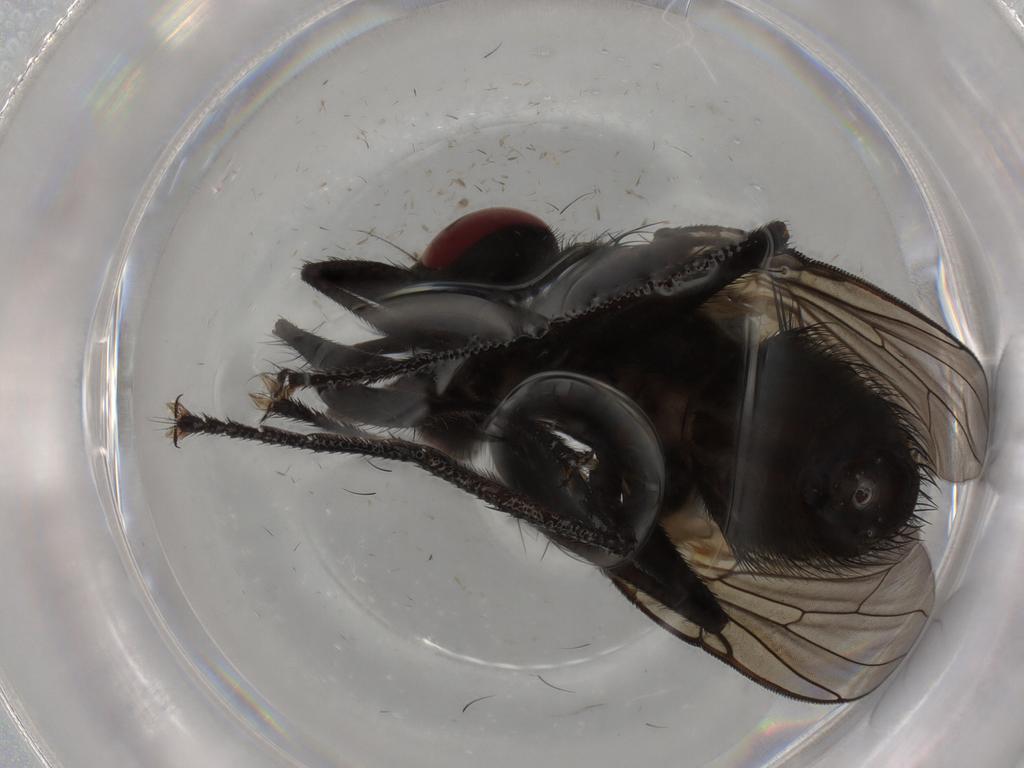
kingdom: Animalia
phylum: Arthropoda
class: Insecta
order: Diptera
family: Muscidae
